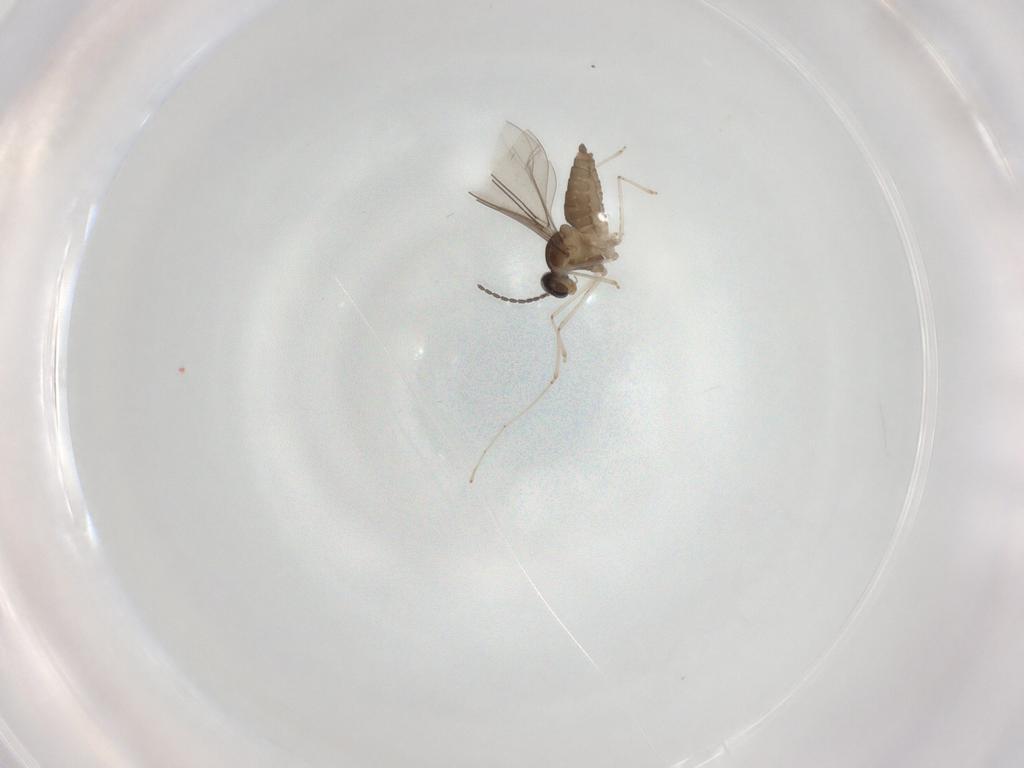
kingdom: Animalia
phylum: Arthropoda
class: Insecta
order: Diptera
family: Cecidomyiidae
